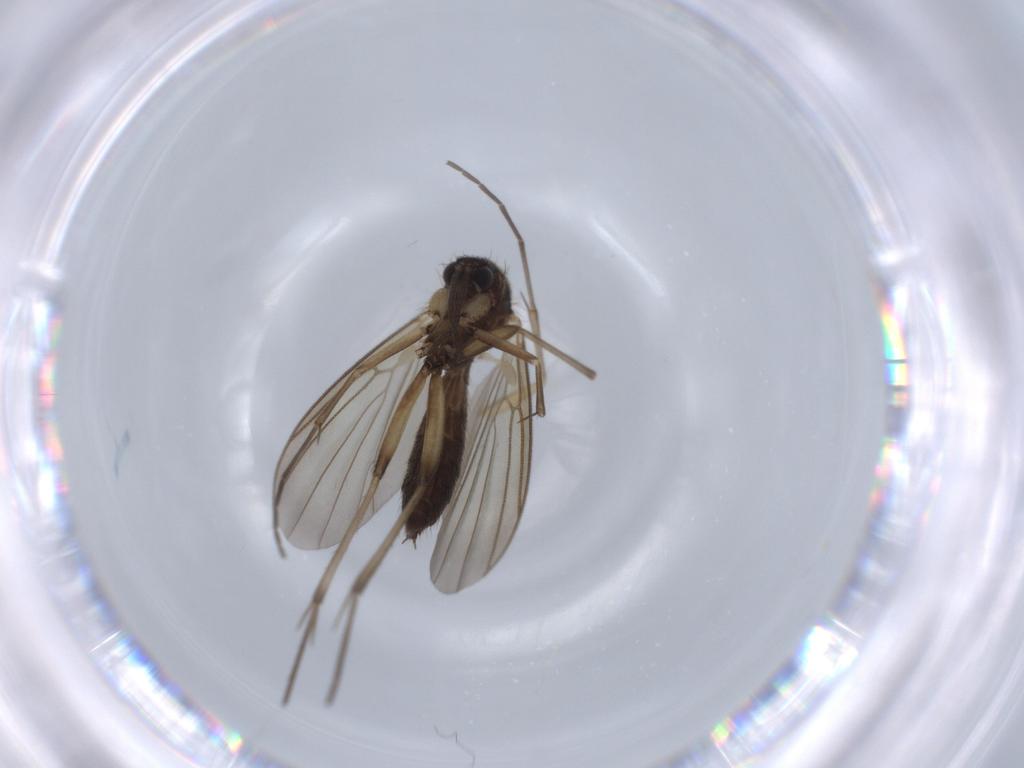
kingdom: Animalia
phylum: Arthropoda
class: Insecta
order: Diptera
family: Mycetophilidae
